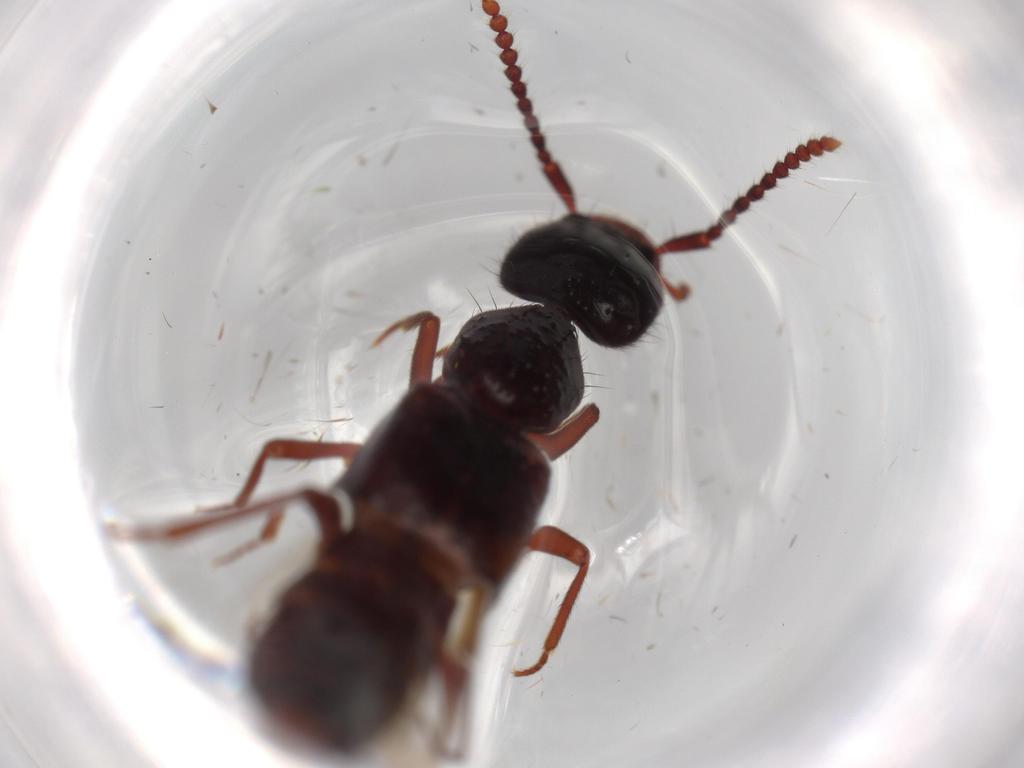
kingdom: Animalia
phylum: Arthropoda
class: Insecta
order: Coleoptera
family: Staphylinidae
